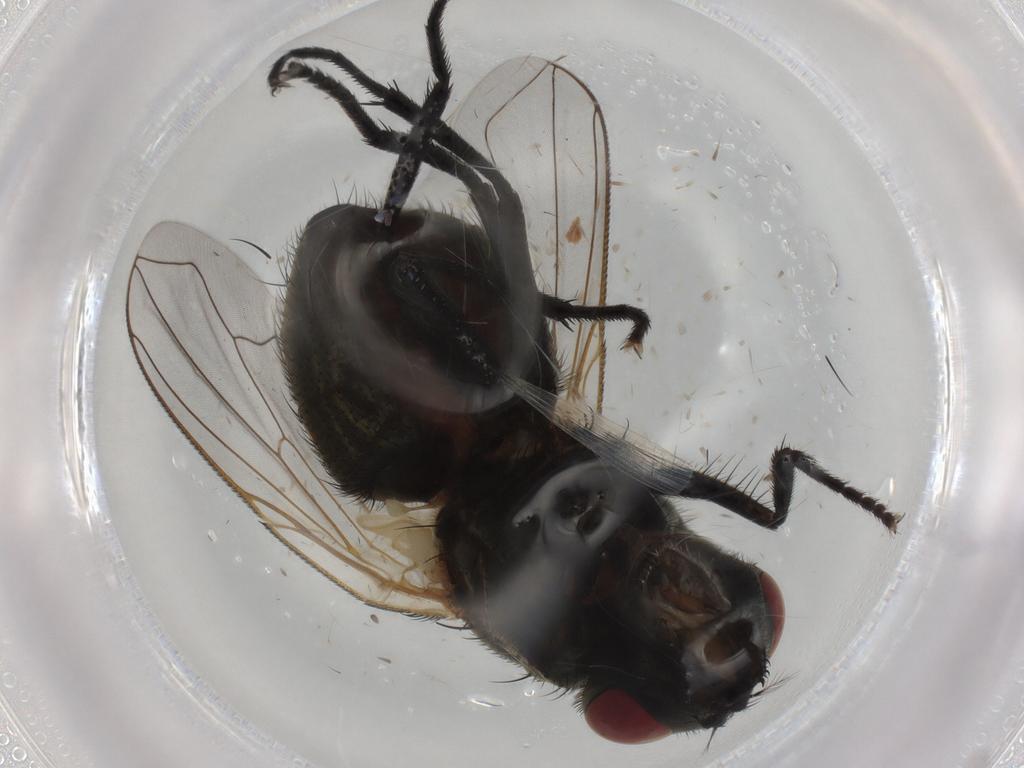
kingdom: Animalia
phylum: Arthropoda
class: Insecta
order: Diptera
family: Muscidae
